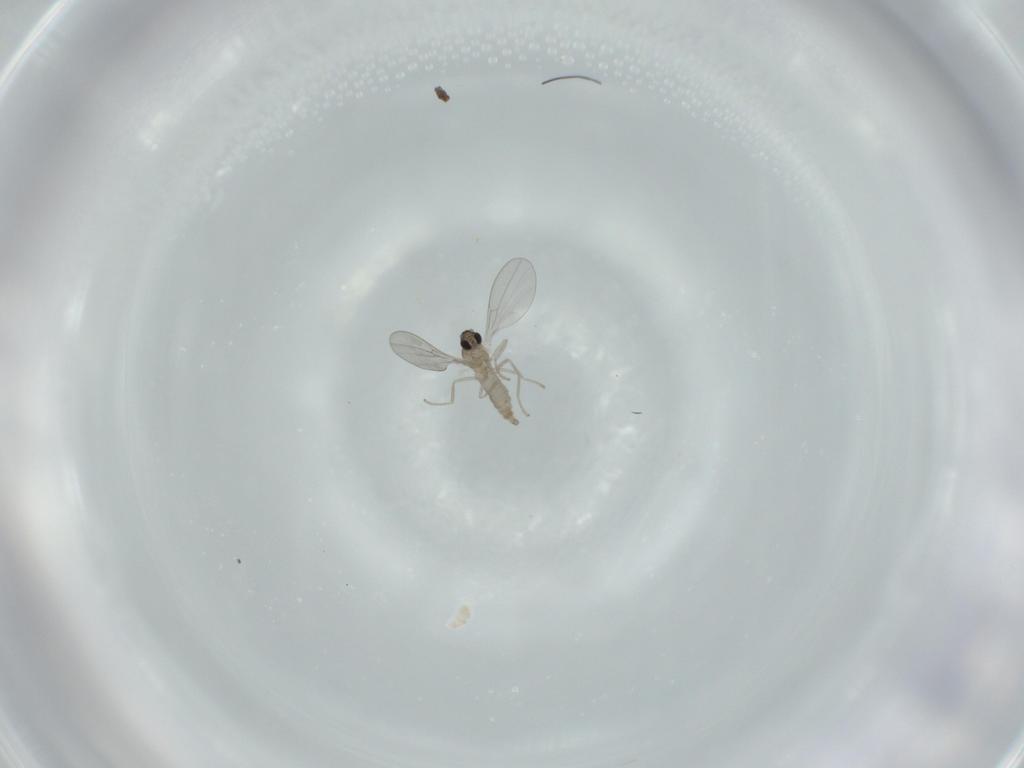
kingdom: Animalia
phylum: Arthropoda
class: Insecta
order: Diptera
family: Cecidomyiidae
